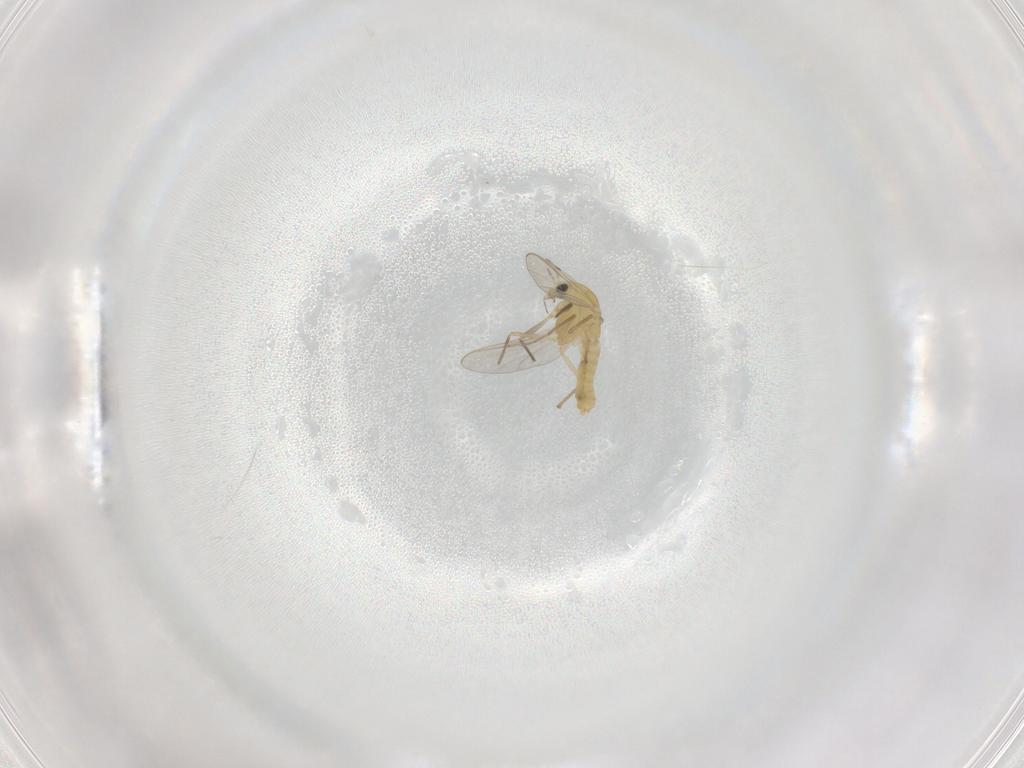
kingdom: Animalia
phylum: Arthropoda
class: Insecta
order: Diptera
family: Chironomidae
